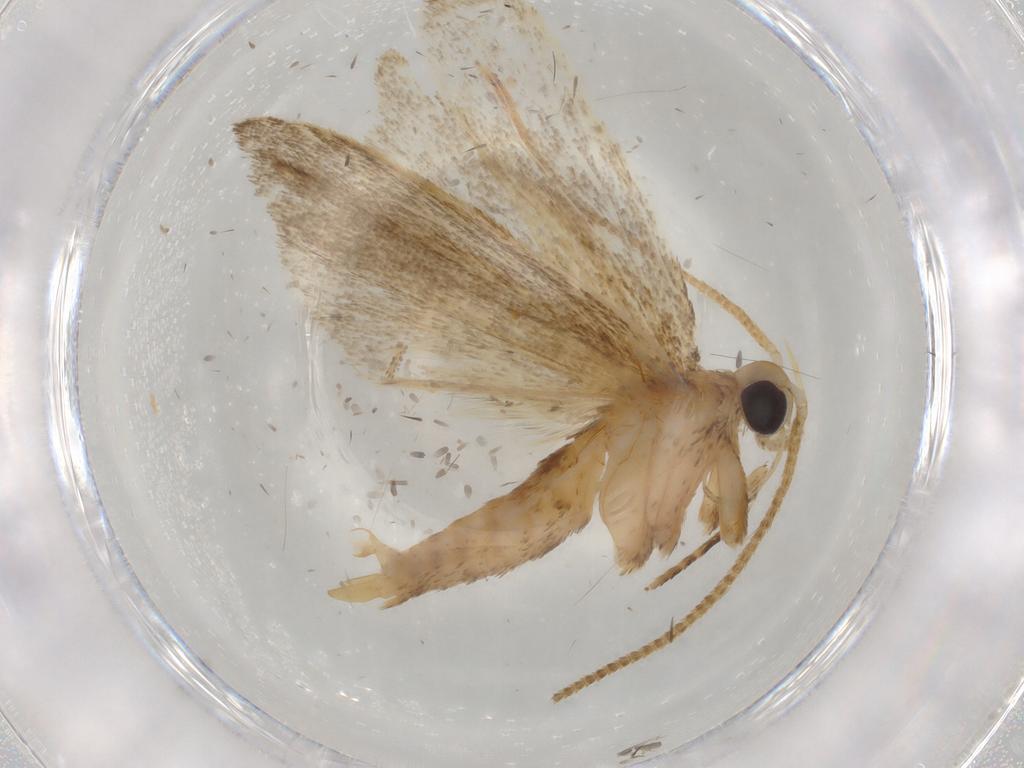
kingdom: Animalia
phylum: Arthropoda
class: Insecta
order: Lepidoptera
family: Autostichidae
